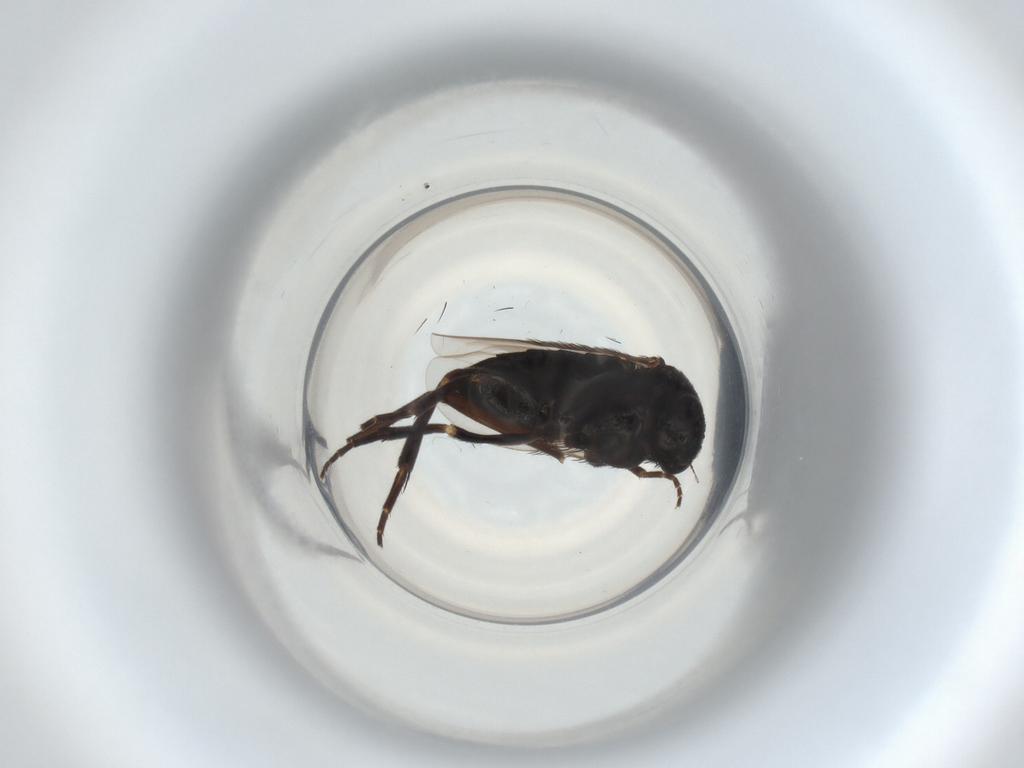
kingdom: Animalia
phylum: Arthropoda
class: Insecta
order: Diptera
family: Phoridae
